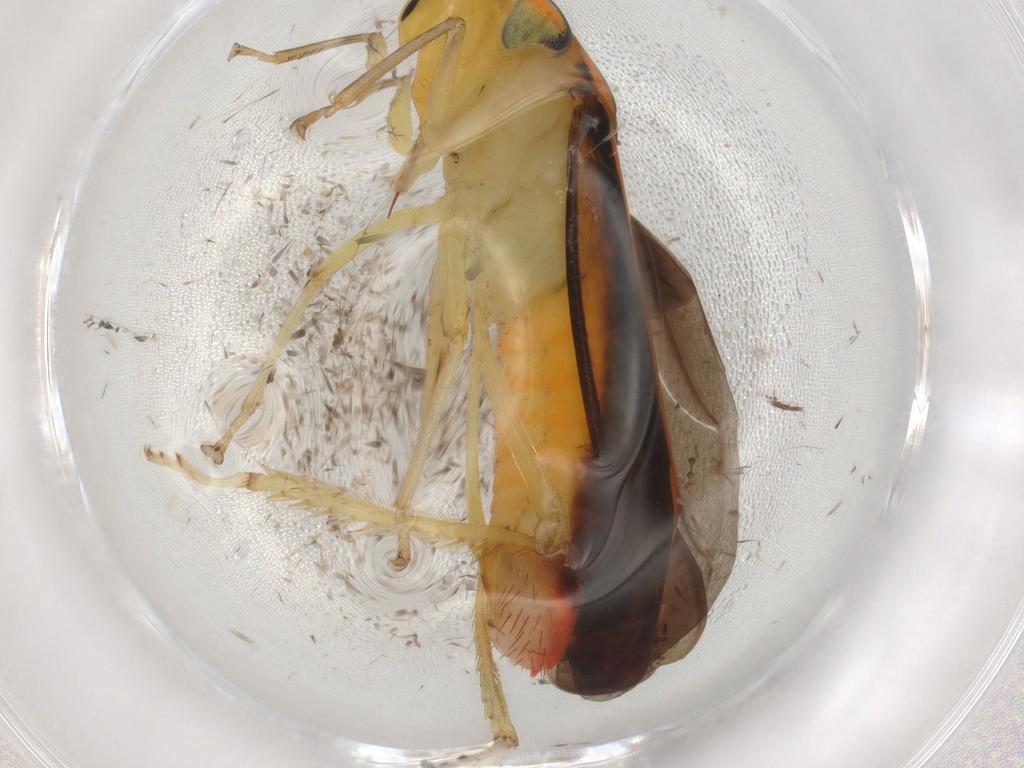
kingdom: Animalia
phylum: Arthropoda
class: Insecta
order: Hemiptera
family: Cicadellidae
